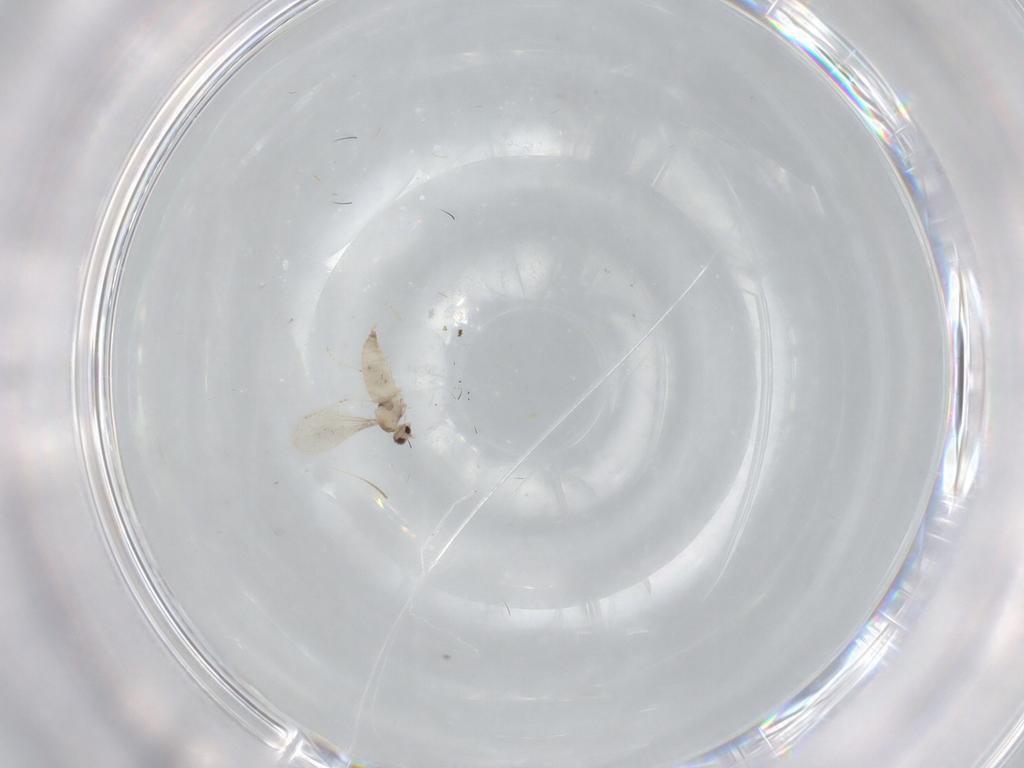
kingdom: Animalia
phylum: Arthropoda
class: Insecta
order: Diptera
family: Cecidomyiidae
